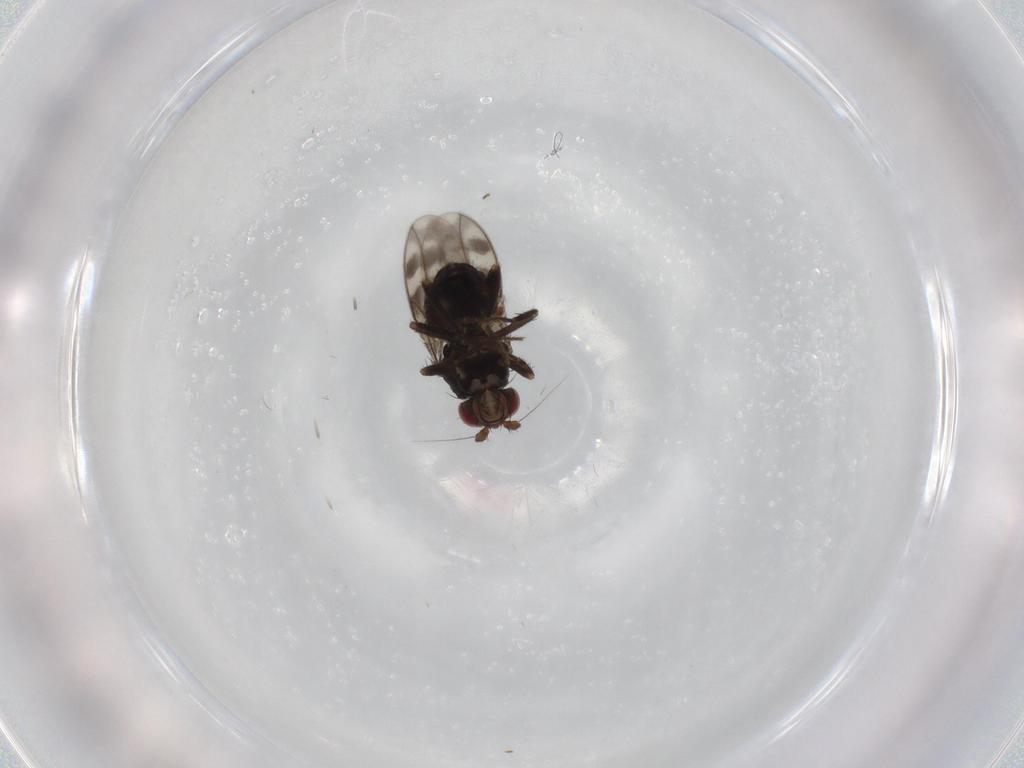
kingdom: Animalia
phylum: Arthropoda
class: Insecta
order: Diptera
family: Sphaeroceridae
